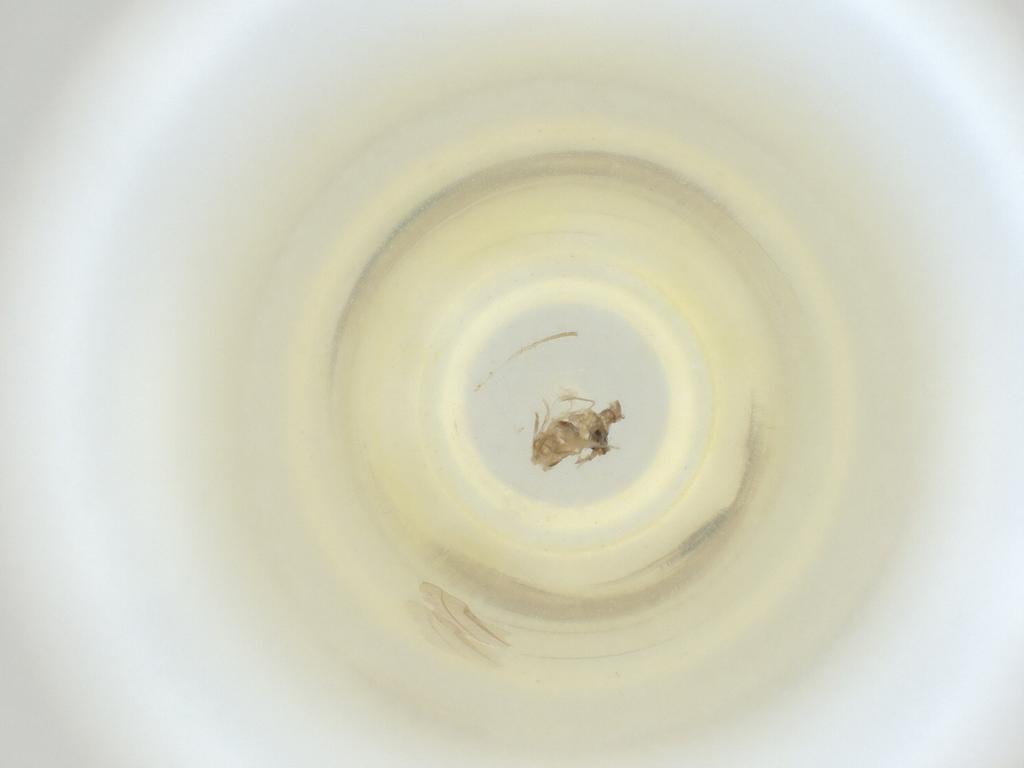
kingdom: Animalia
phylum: Arthropoda
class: Insecta
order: Diptera
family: Cecidomyiidae
